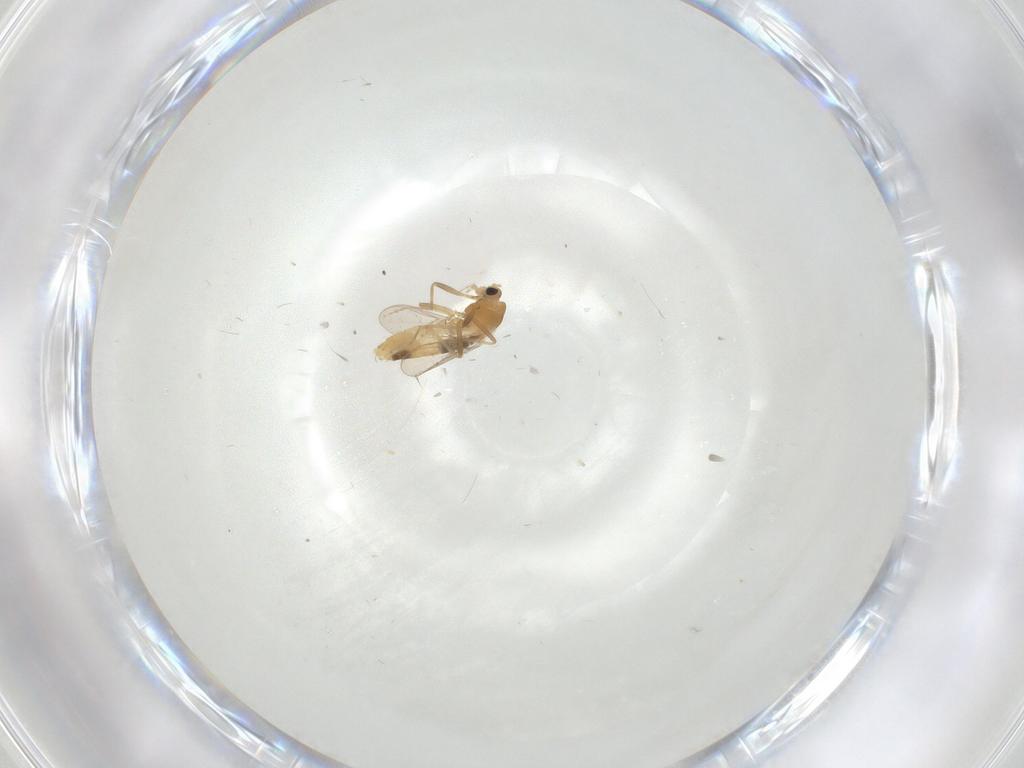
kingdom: Animalia
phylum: Arthropoda
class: Insecta
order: Diptera
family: Chironomidae
